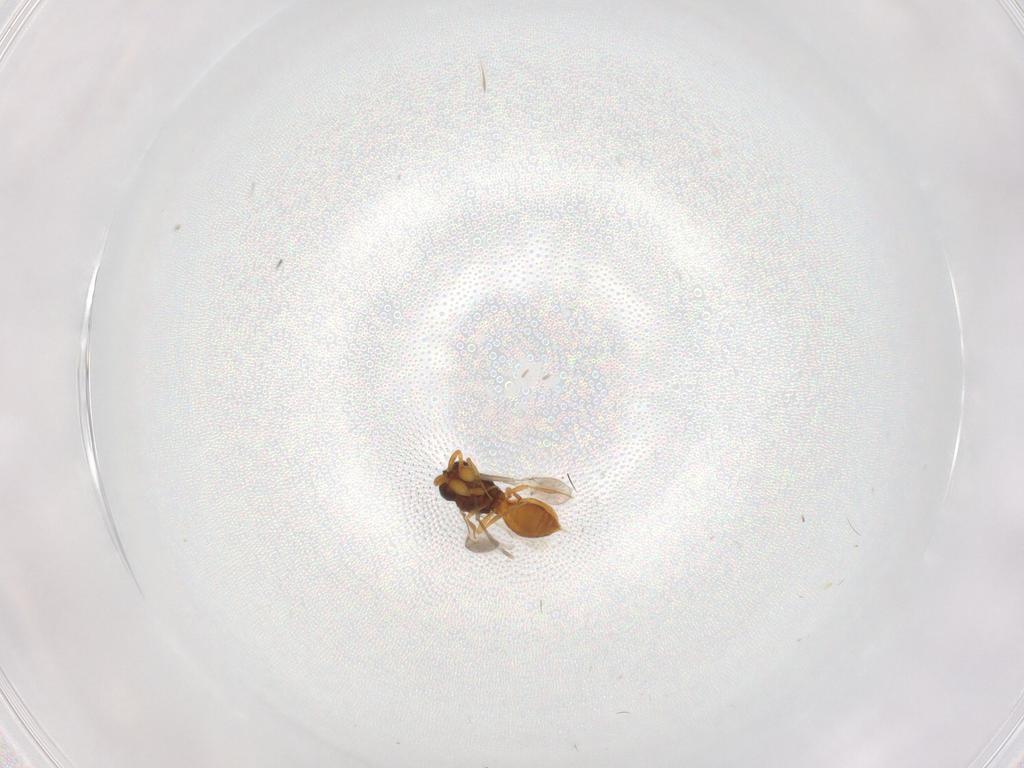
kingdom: Animalia
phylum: Arthropoda
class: Insecta
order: Hymenoptera
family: Scelionidae
